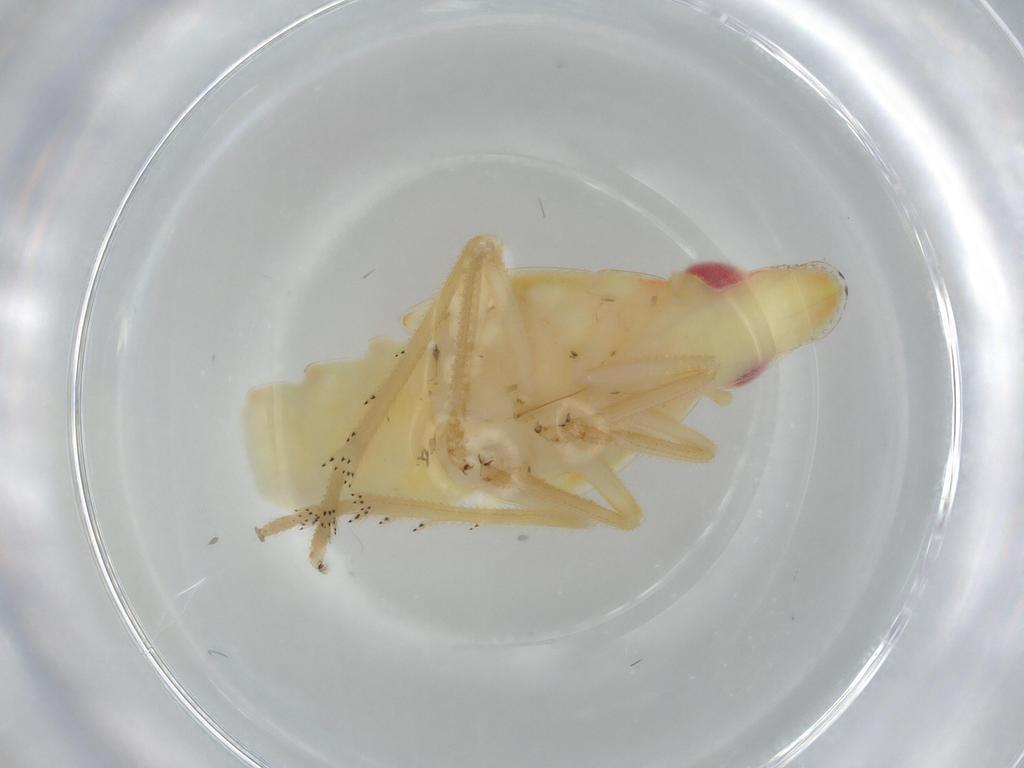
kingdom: Animalia
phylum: Arthropoda
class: Insecta
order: Hemiptera
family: Tropiduchidae
